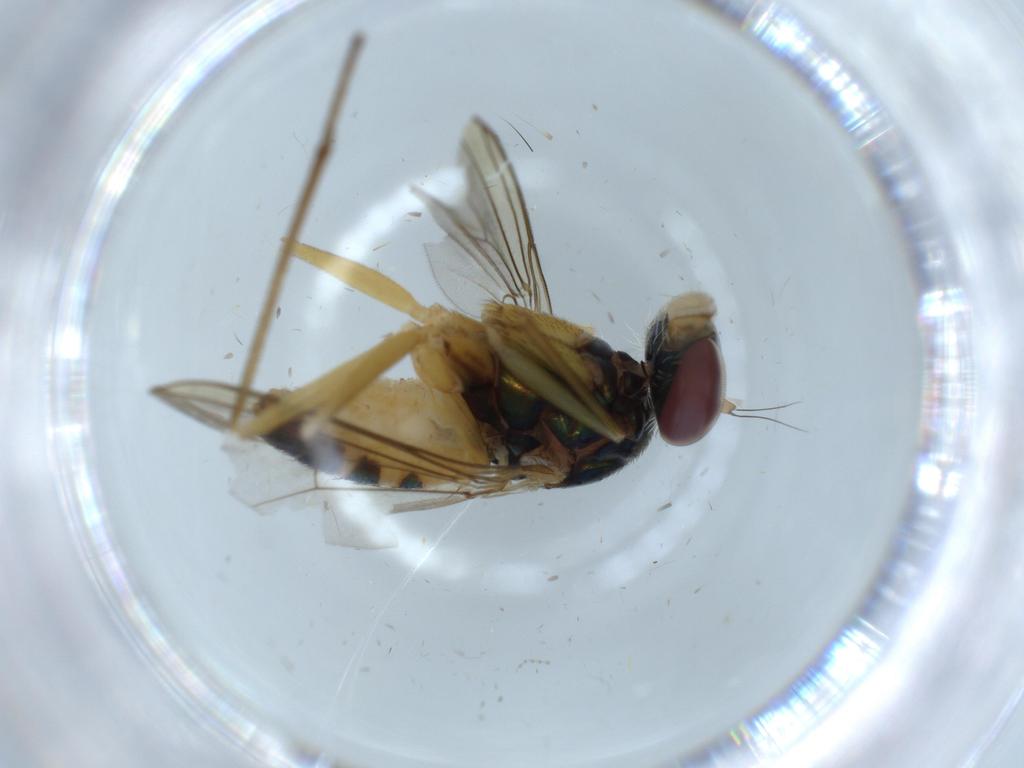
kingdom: Animalia
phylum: Arthropoda
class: Insecta
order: Diptera
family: Dolichopodidae
